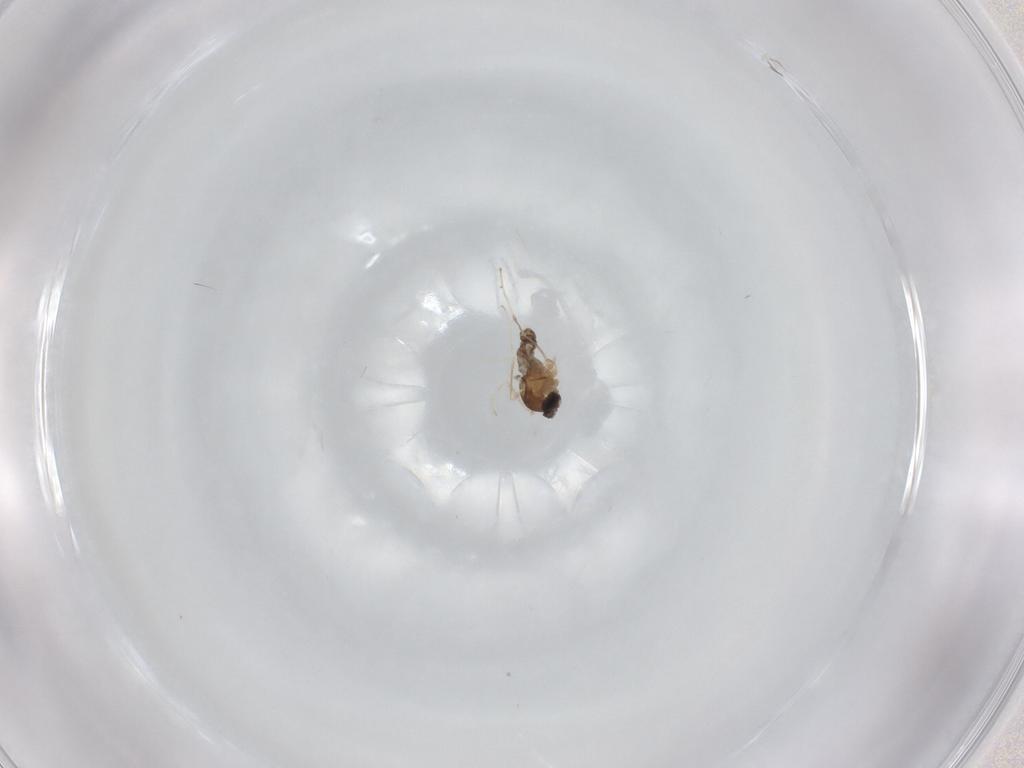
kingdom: Animalia
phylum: Arthropoda
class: Insecta
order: Diptera
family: Cecidomyiidae
